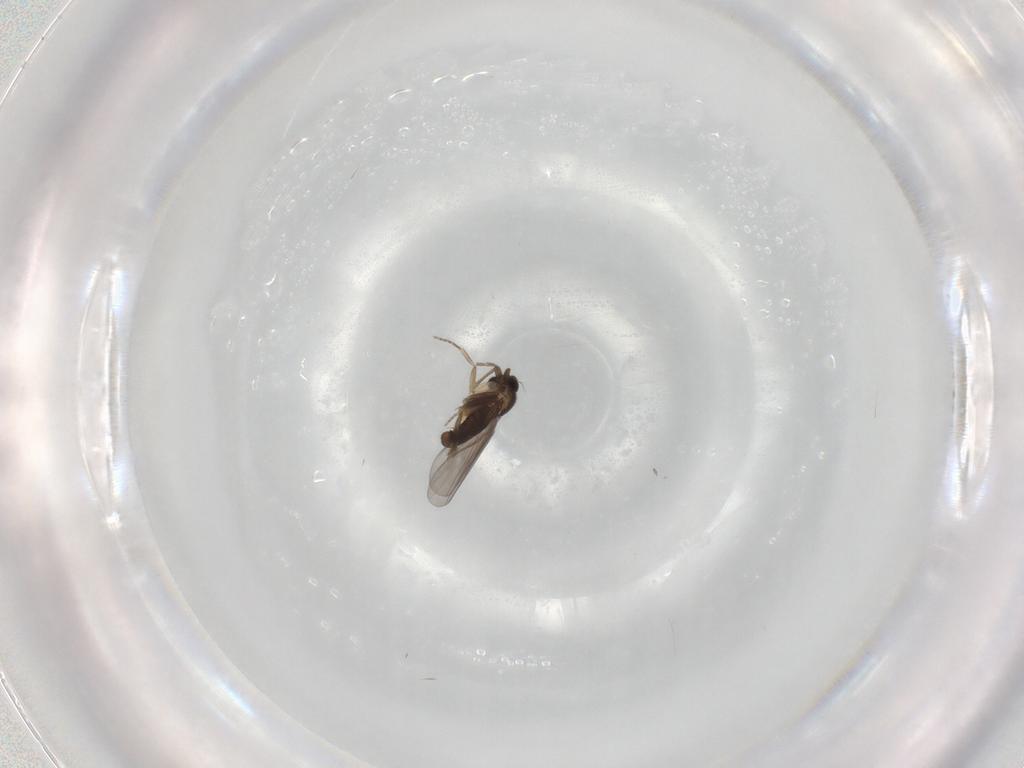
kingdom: Animalia
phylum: Arthropoda
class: Insecta
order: Diptera
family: Cecidomyiidae
